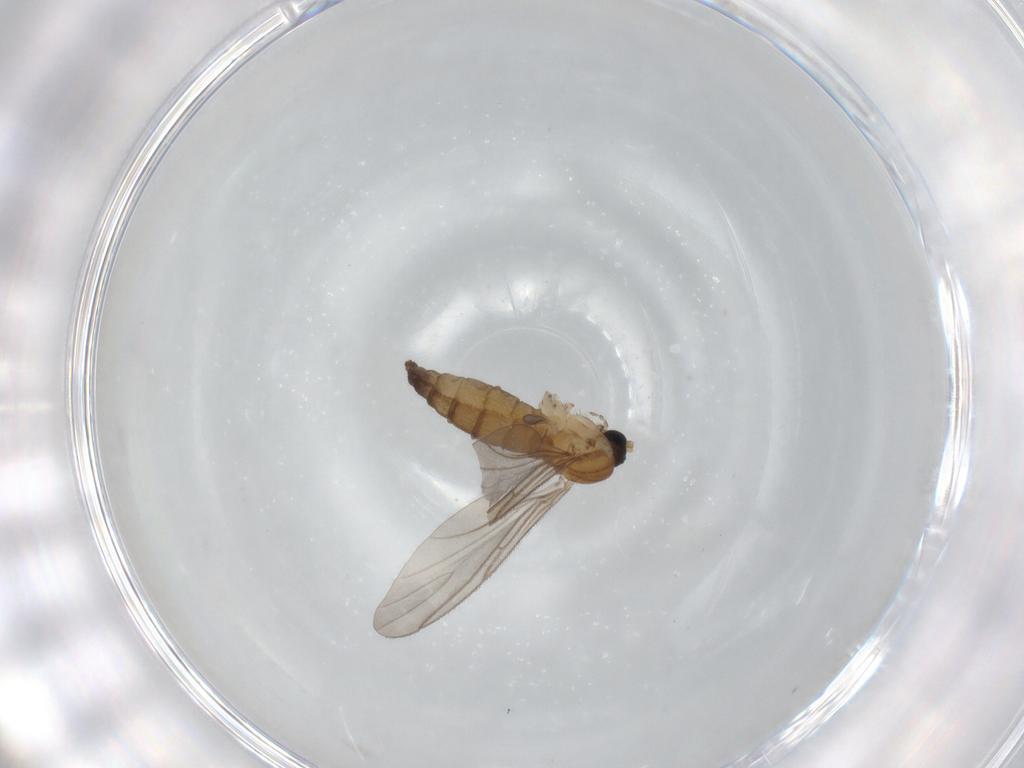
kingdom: Animalia
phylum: Arthropoda
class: Insecta
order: Diptera
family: Sciaridae
